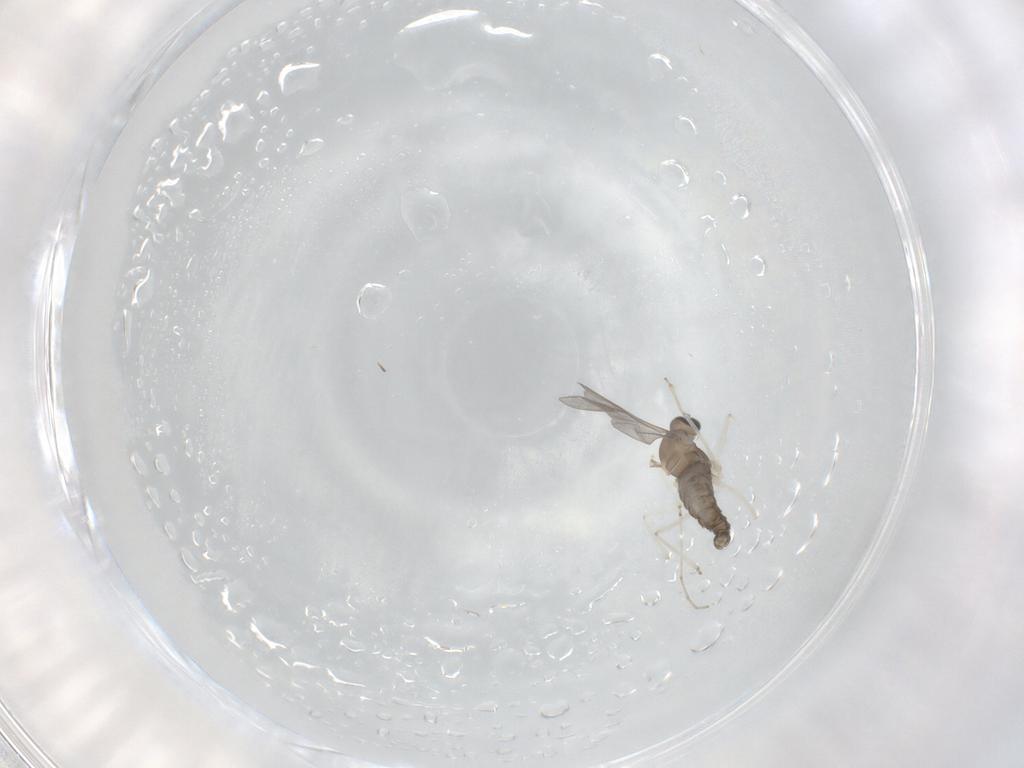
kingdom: Animalia
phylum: Arthropoda
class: Insecta
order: Diptera
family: Cecidomyiidae
